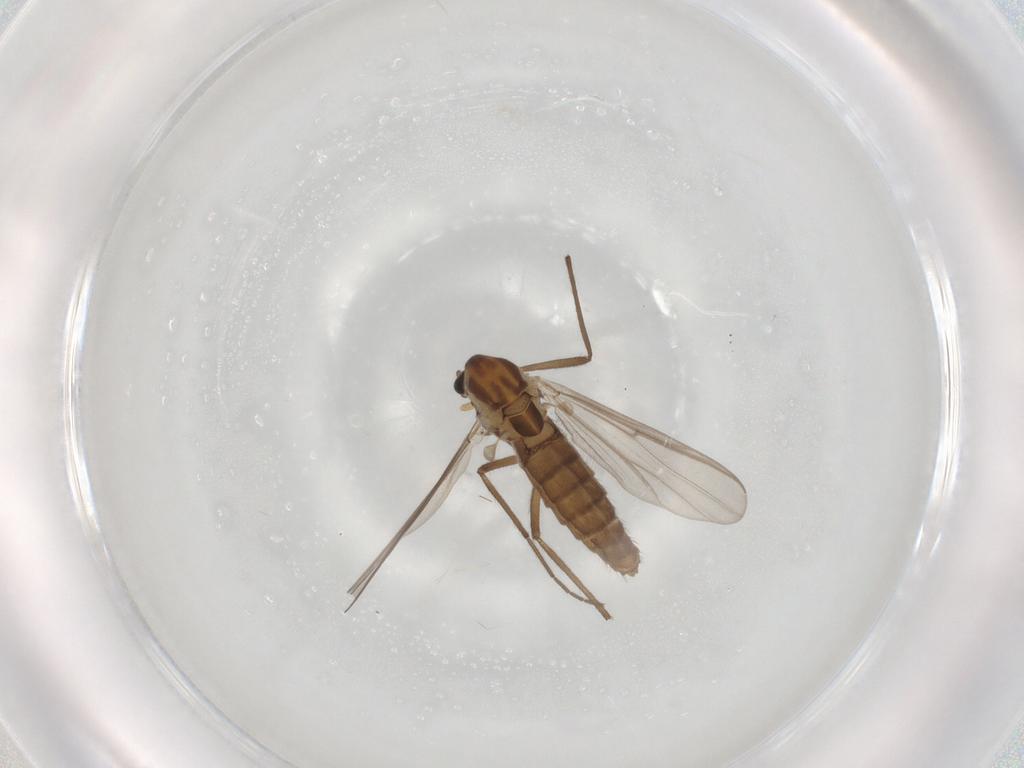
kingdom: Animalia
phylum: Arthropoda
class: Insecta
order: Diptera
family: Chironomidae
